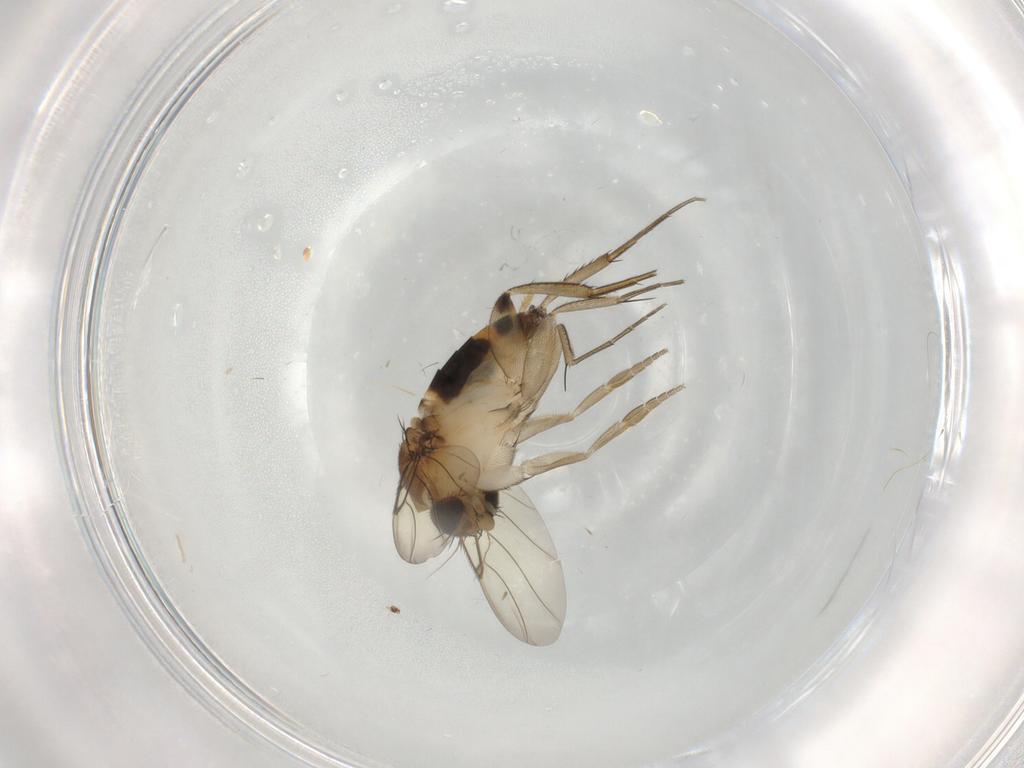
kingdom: Animalia
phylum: Arthropoda
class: Insecta
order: Diptera
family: Phoridae
